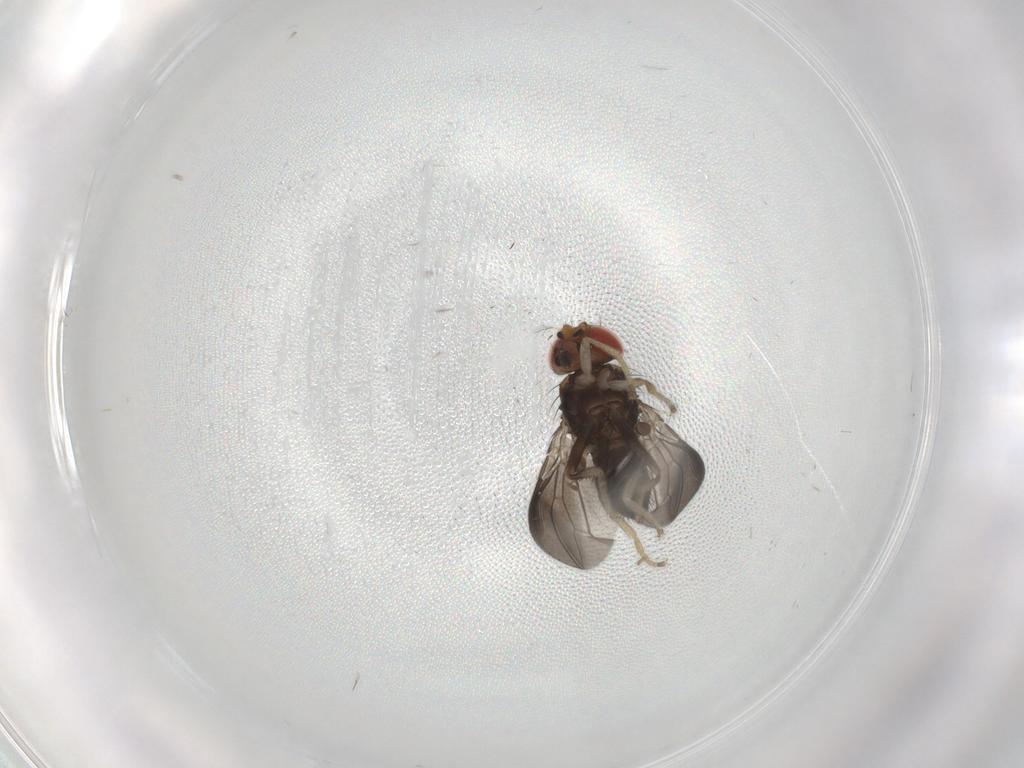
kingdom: Animalia
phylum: Arthropoda
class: Insecta
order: Diptera
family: Drosophilidae
